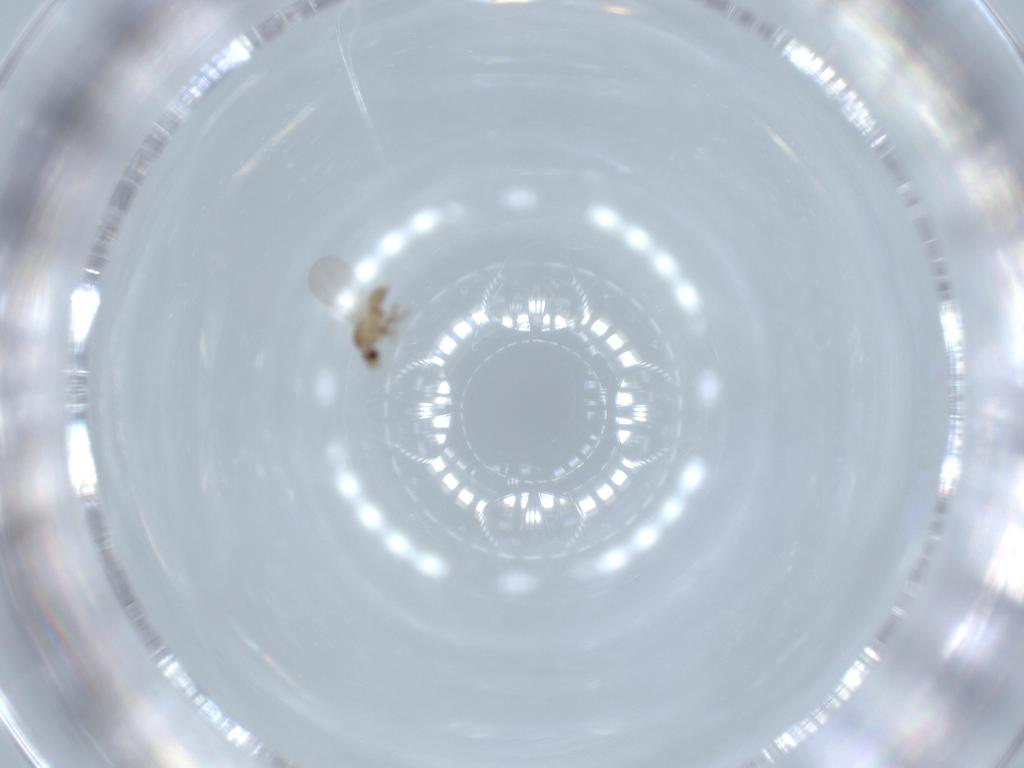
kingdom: Animalia
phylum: Arthropoda
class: Insecta
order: Diptera
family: Phoridae
